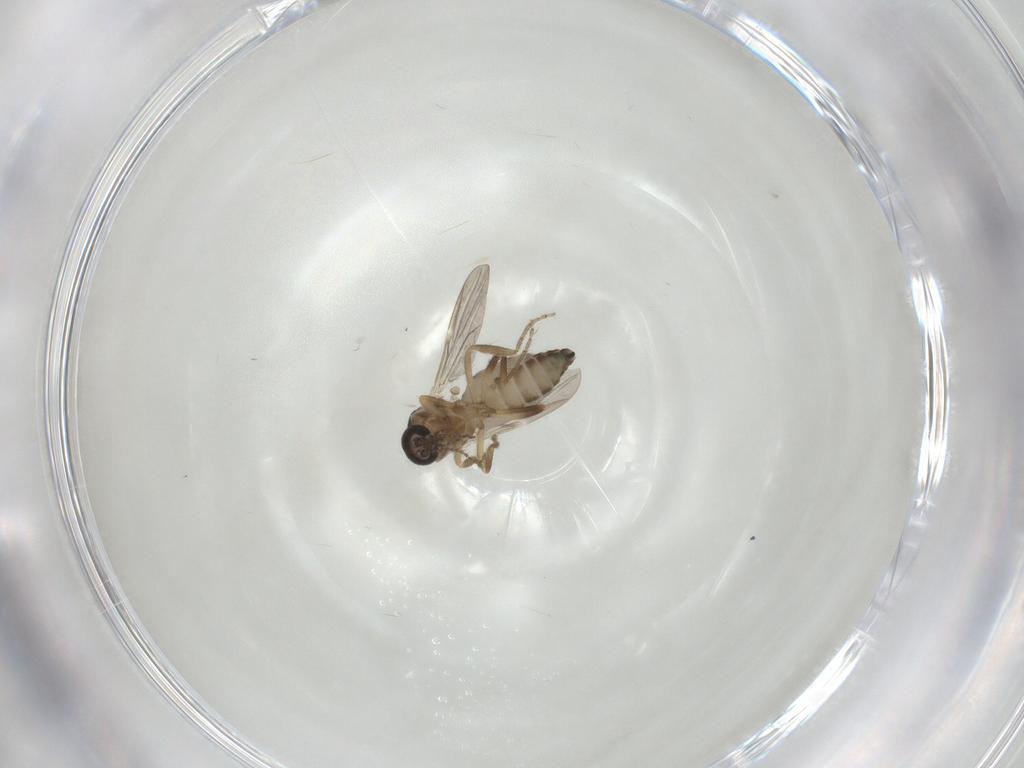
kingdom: Animalia
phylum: Arthropoda
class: Insecta
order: Diptera
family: Ceratopogonidae
